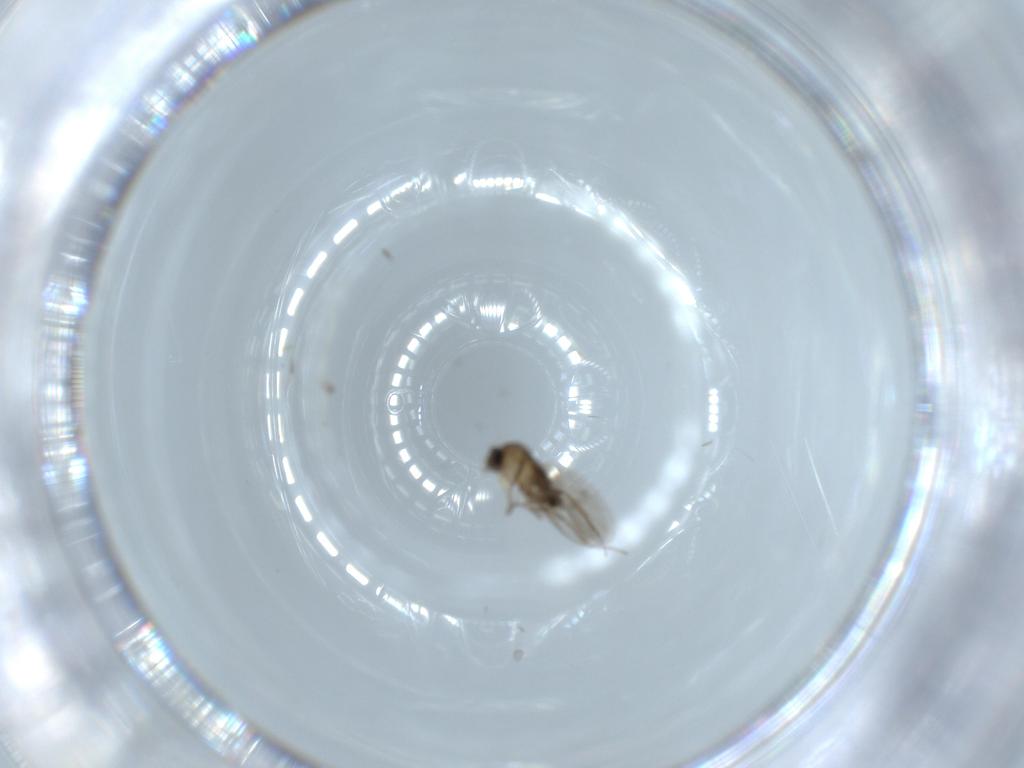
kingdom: Animalia
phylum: Arthropoda
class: Insecta
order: Diptera
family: Phoridae
